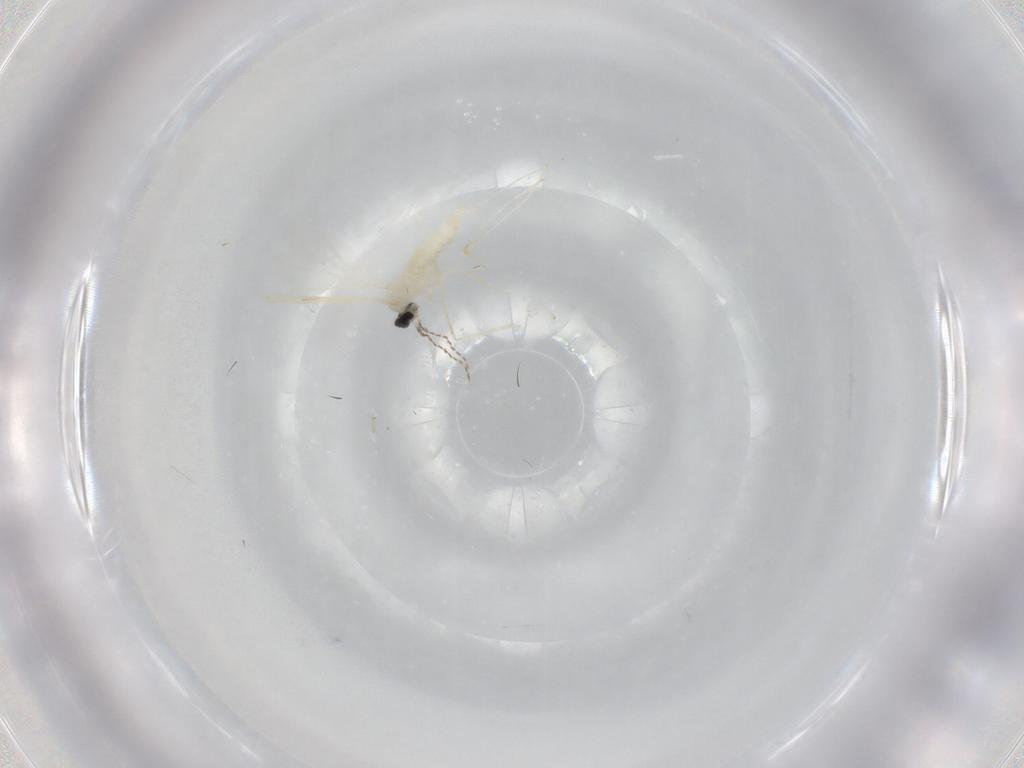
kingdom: Animalia
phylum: Arthropoda
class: Insecta
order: Diptera
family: Cecidomyiidae
